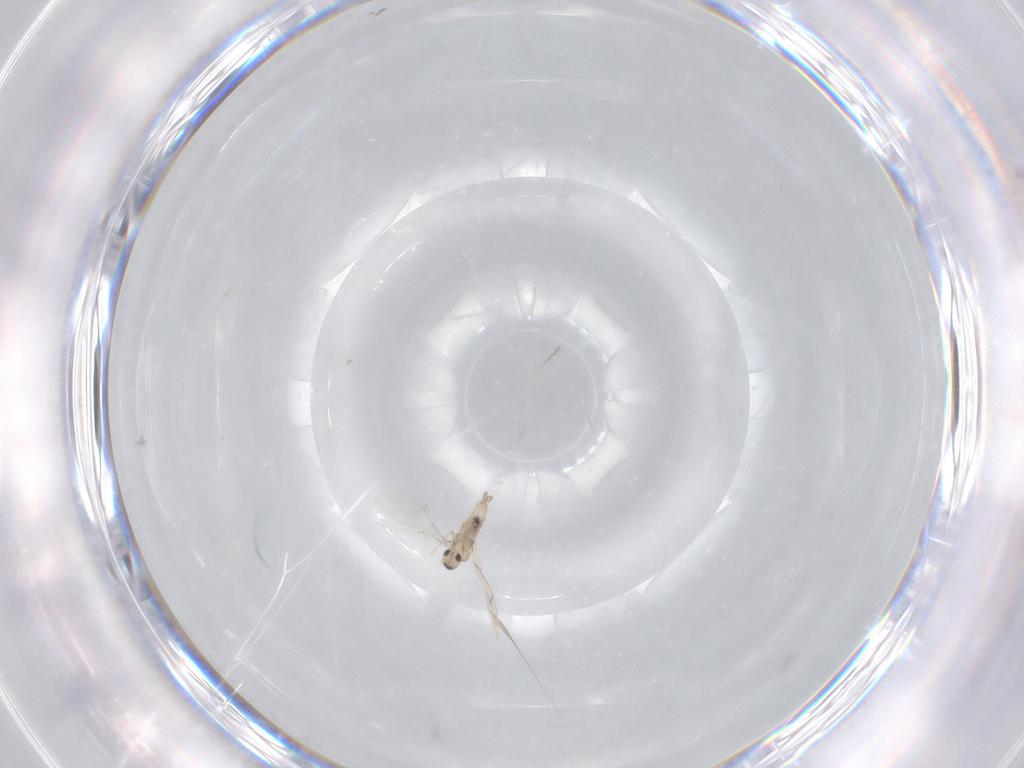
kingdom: Animalia
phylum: Arthropoda
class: Insecta
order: Diptera
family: Cecidomyiidae
